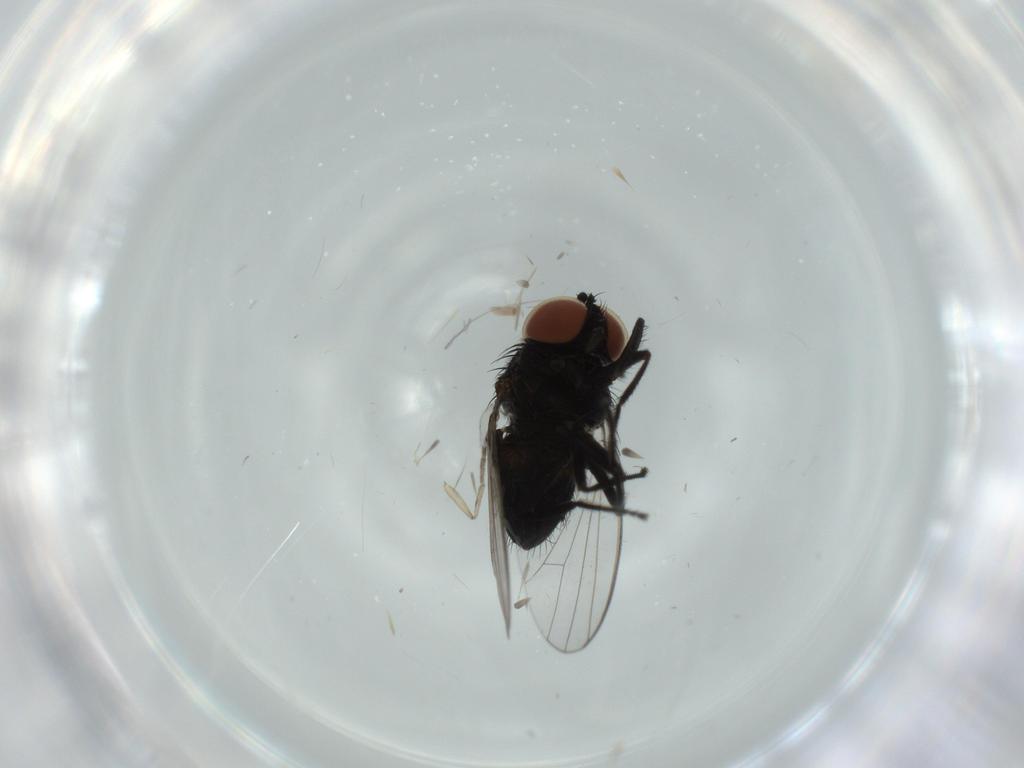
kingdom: Animalia
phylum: Arthropoda
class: Insecta
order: Diptera
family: Milichiidae
